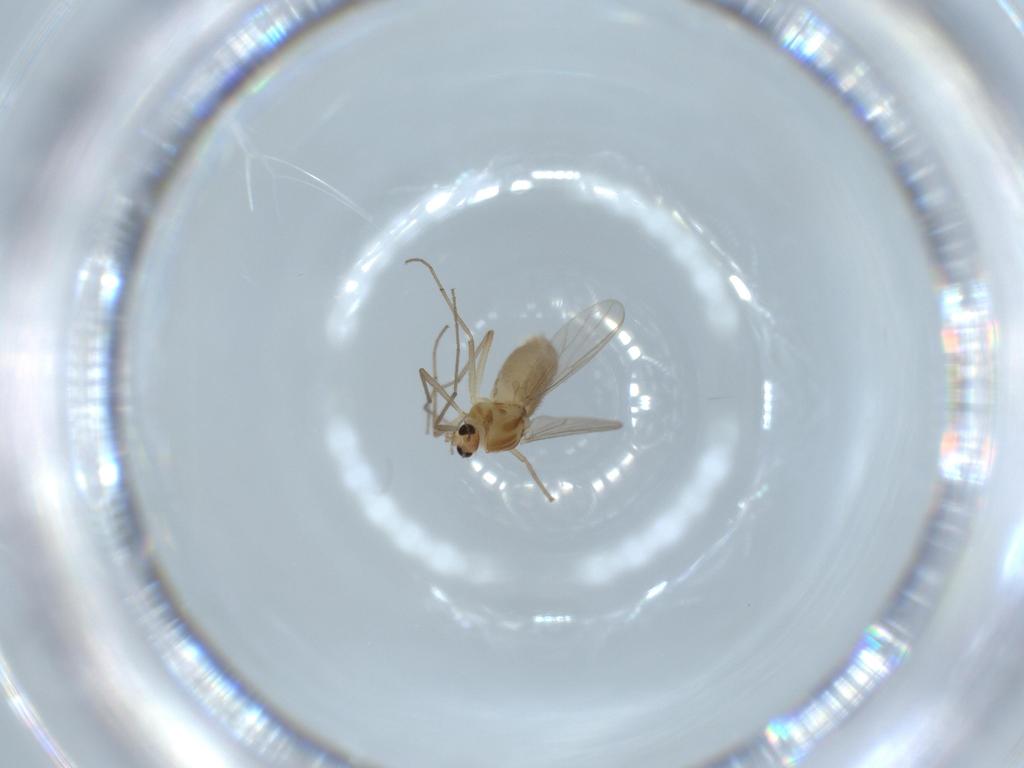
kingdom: Animalia
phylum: Arthropoda
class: Insecta
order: Diptera
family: Chironomidae
